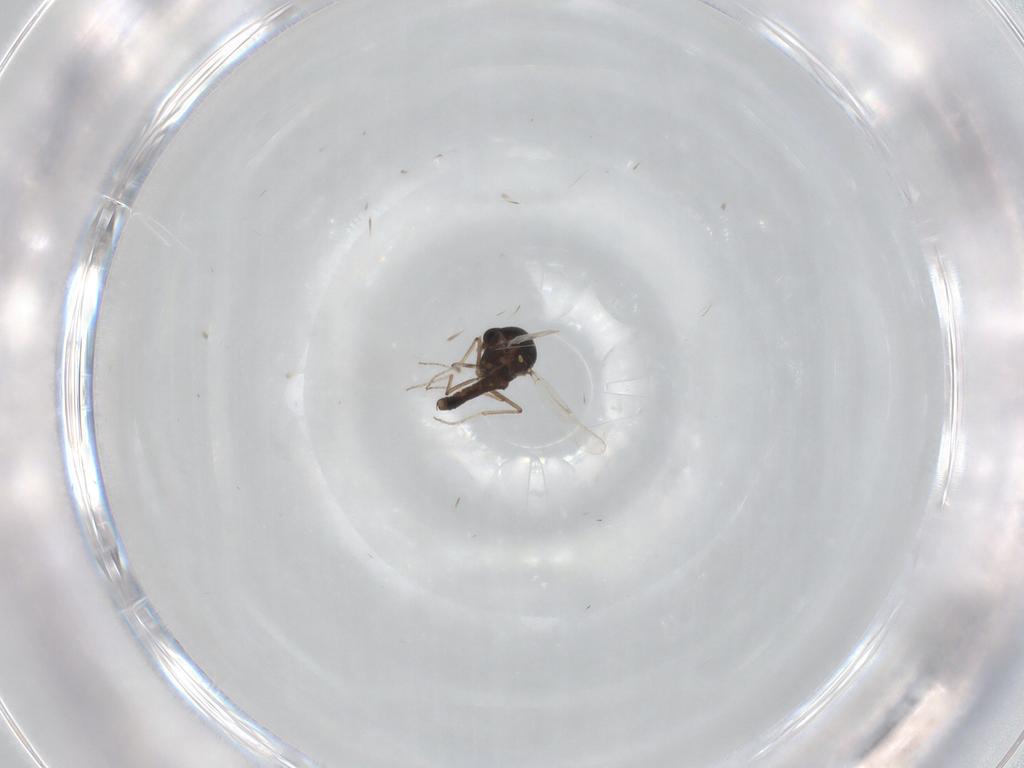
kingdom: Animalia
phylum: Arthropoda
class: Insecta
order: Diptera
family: Ceratopogonidae
